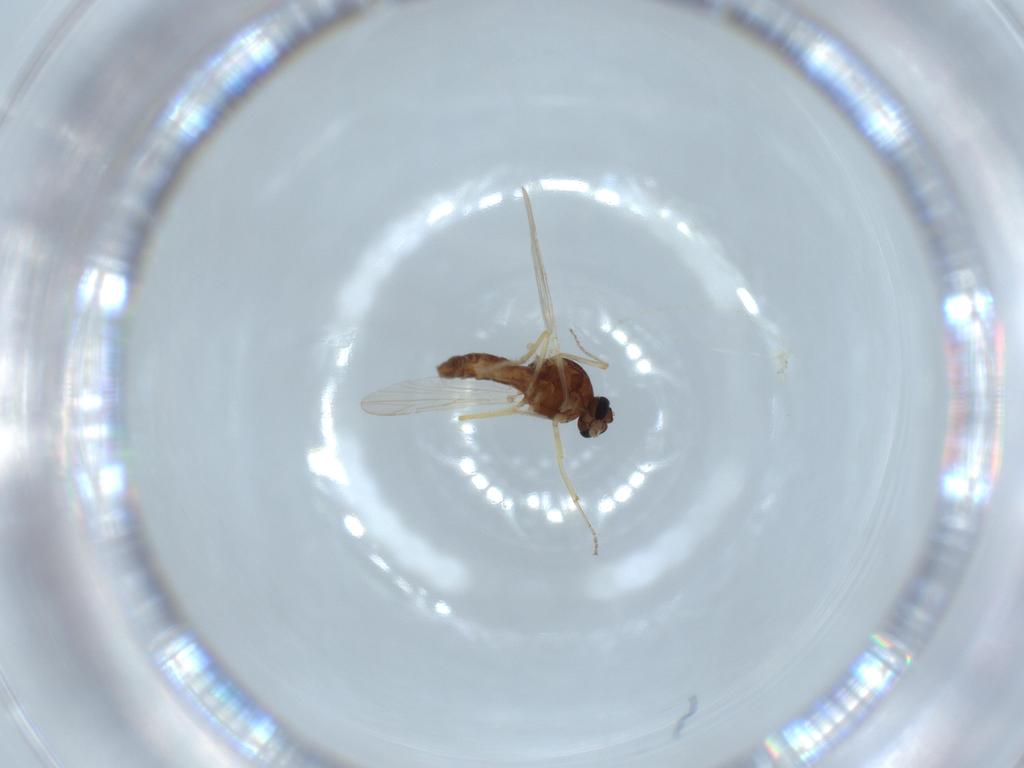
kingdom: Animalia
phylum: Arthropoda
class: Insecta
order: Diptera
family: Ceratopogonidae
